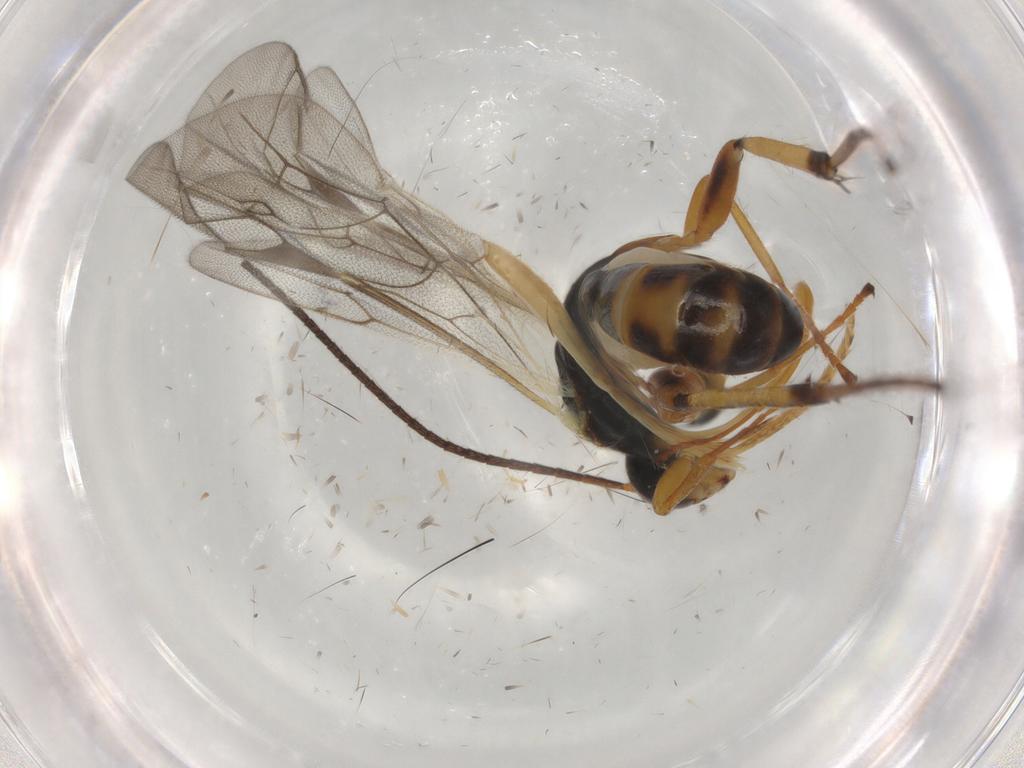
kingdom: Animalia
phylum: Arthropoda
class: Insecta
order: Hymenoptera
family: Ichneumonidae
